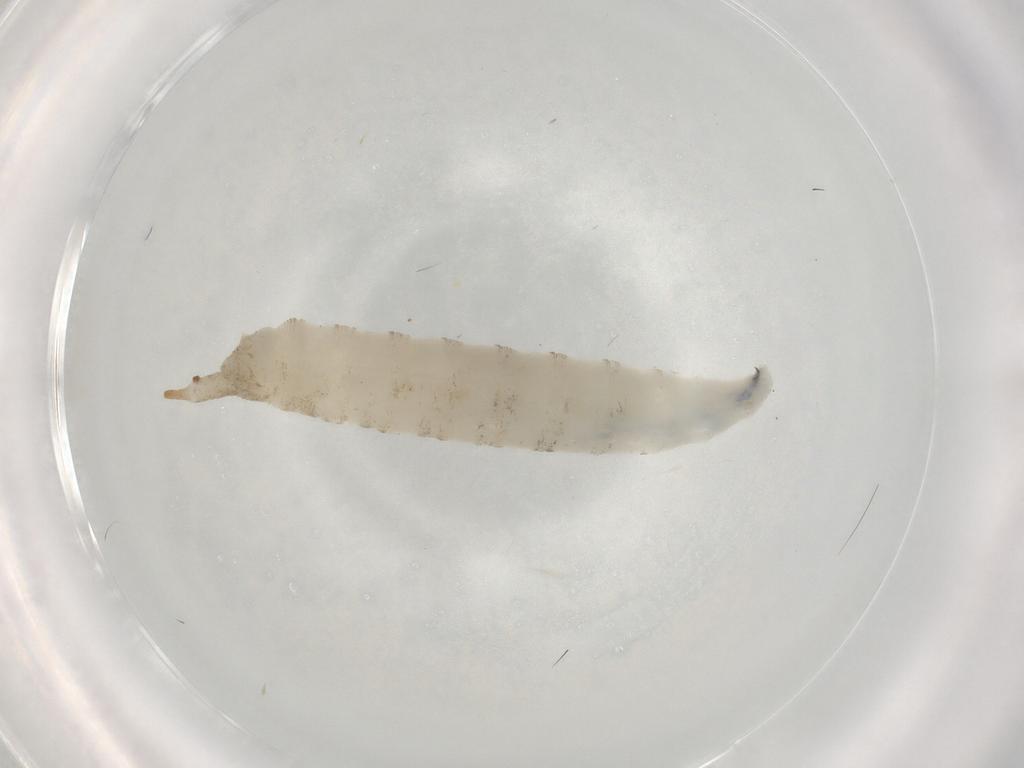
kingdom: Animalia
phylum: Arthropoda
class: Insecta
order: Diptera
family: Drosophilidae
